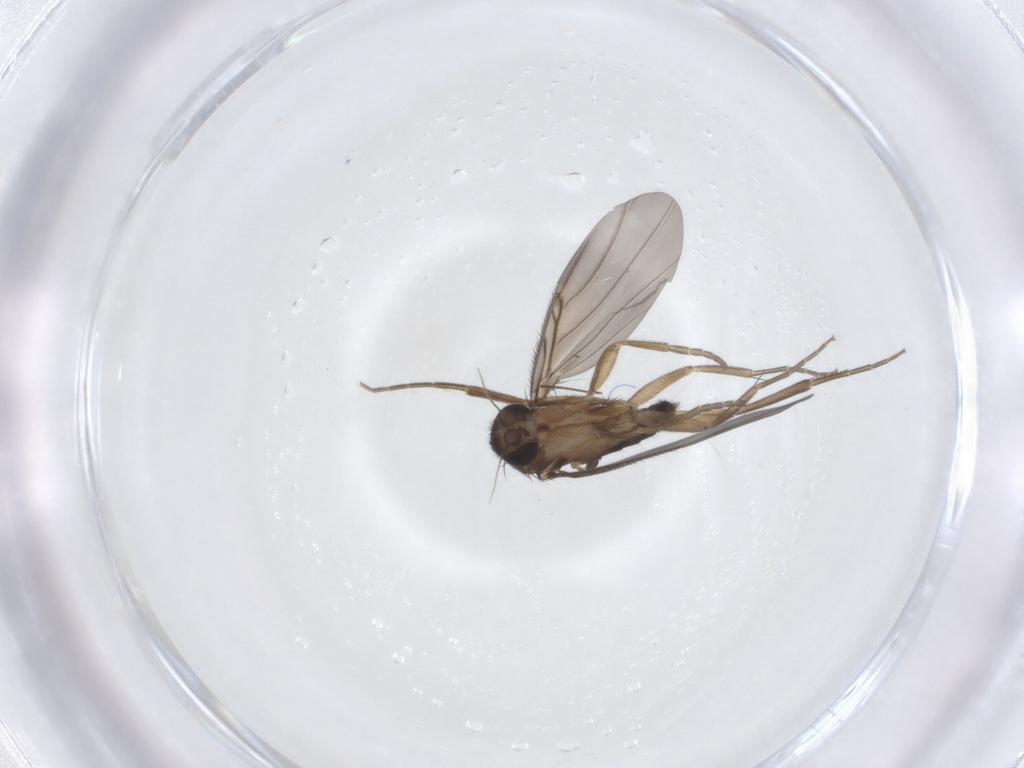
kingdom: Animalia
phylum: Arthropoda
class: Insecta
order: Diptera
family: Chironomidae
